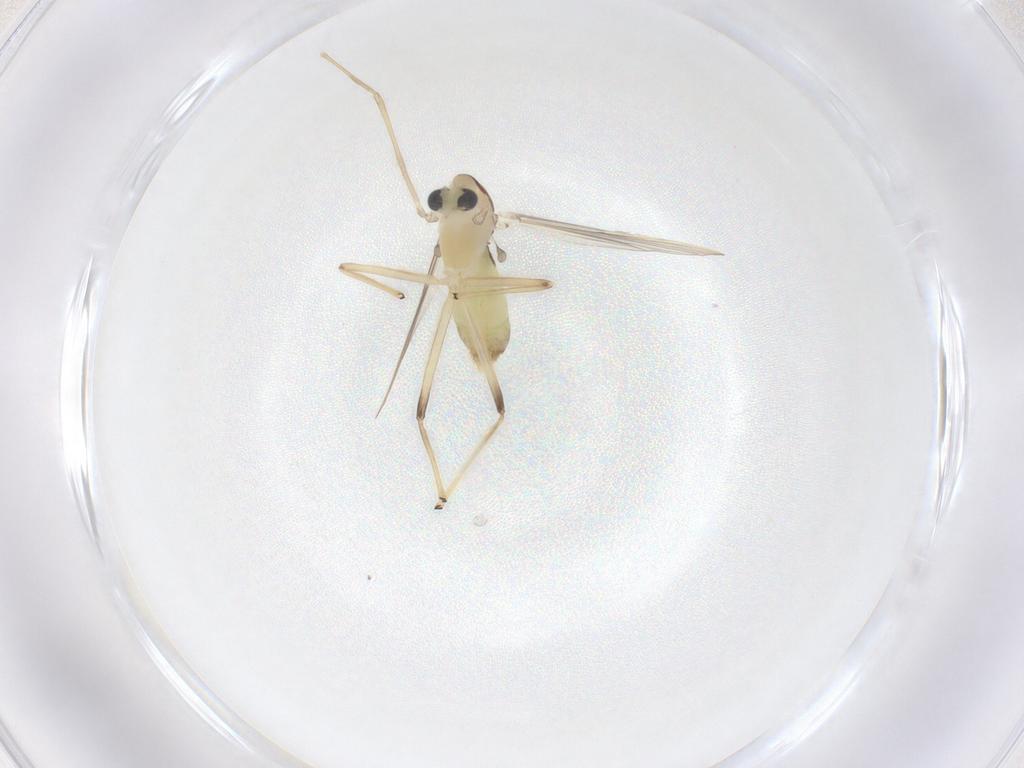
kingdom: Animalia
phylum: Arthropoda
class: Insecta
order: Diptera
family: Chironomidae
